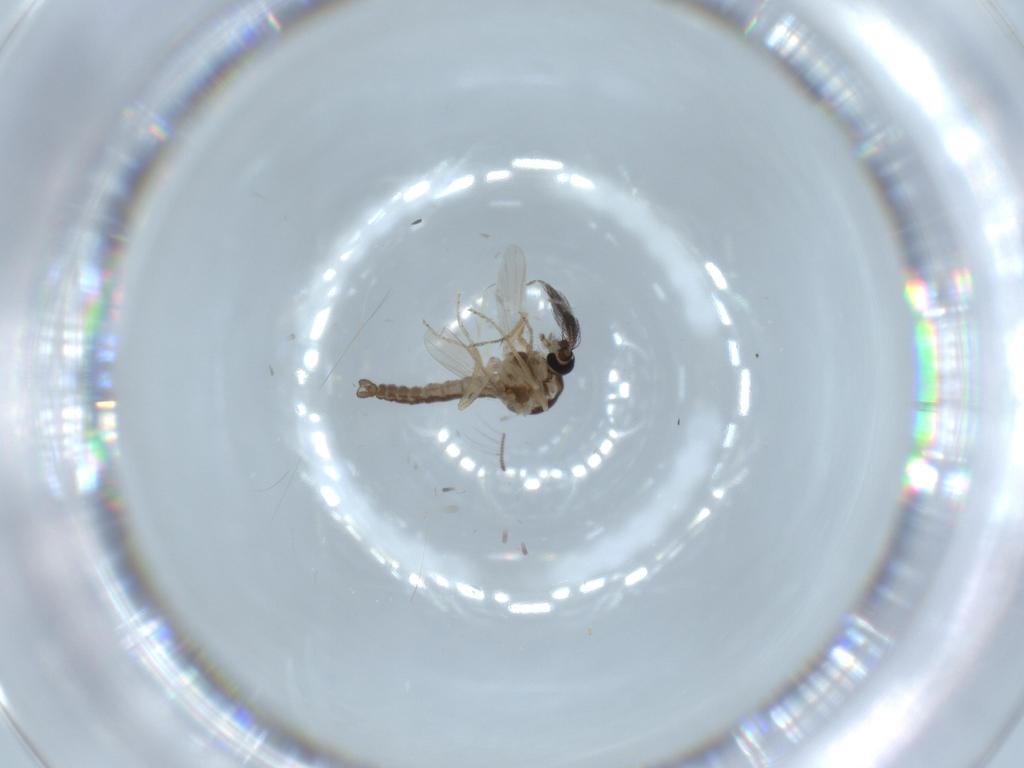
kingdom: Animalia
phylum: Arthropoda
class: Insecta
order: Diptera
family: Ceratopogonidae
